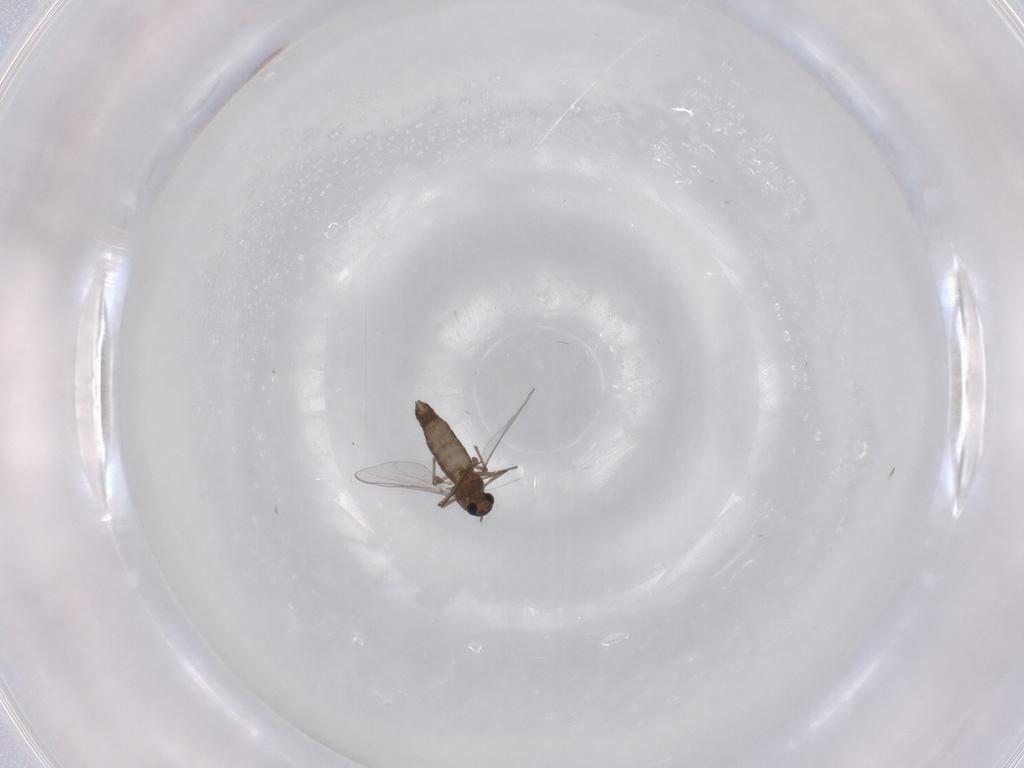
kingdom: Animalia
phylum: Arthropoda
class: Insecta
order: Diptera
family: Chironomidae
